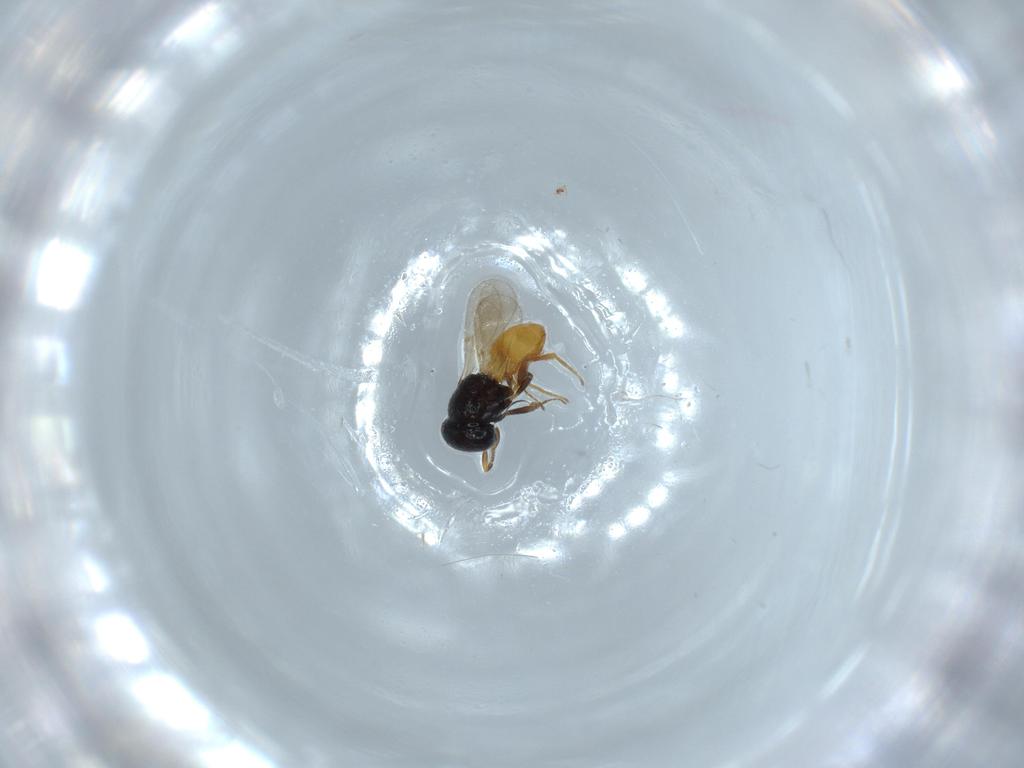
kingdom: Animalia
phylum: Arthropoda
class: Insecta
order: Hymenoptera
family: Scelionidae
